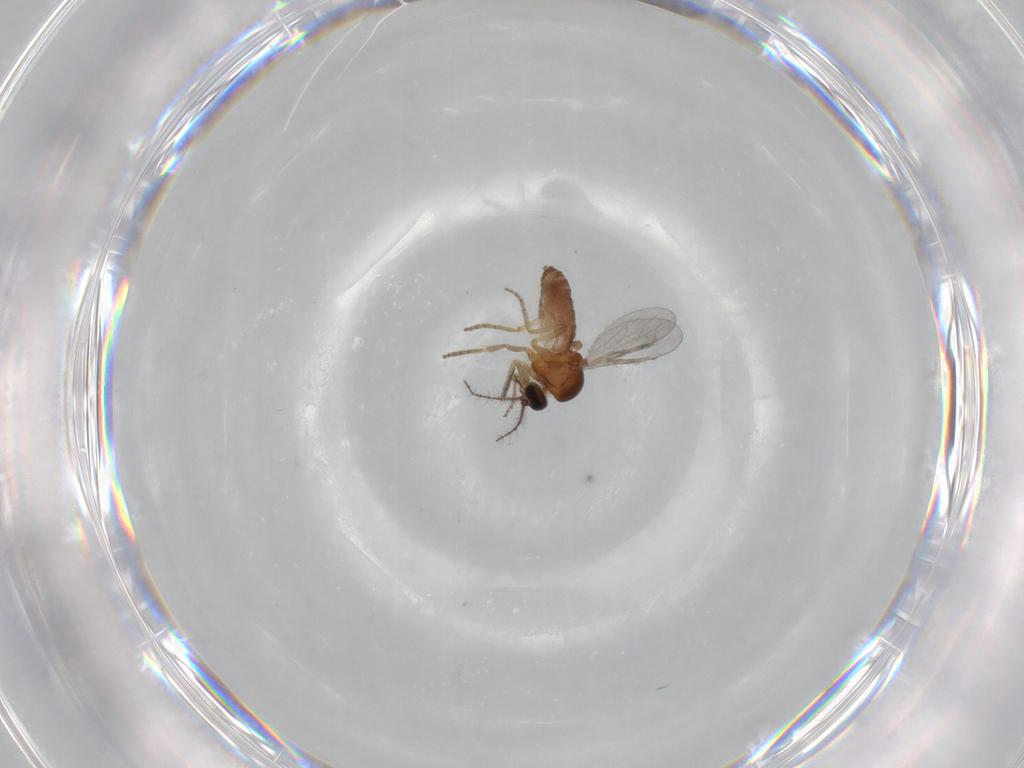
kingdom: Animalia
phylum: Arthropoda
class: Insecta
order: Diptera
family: Ceratopogonidae
